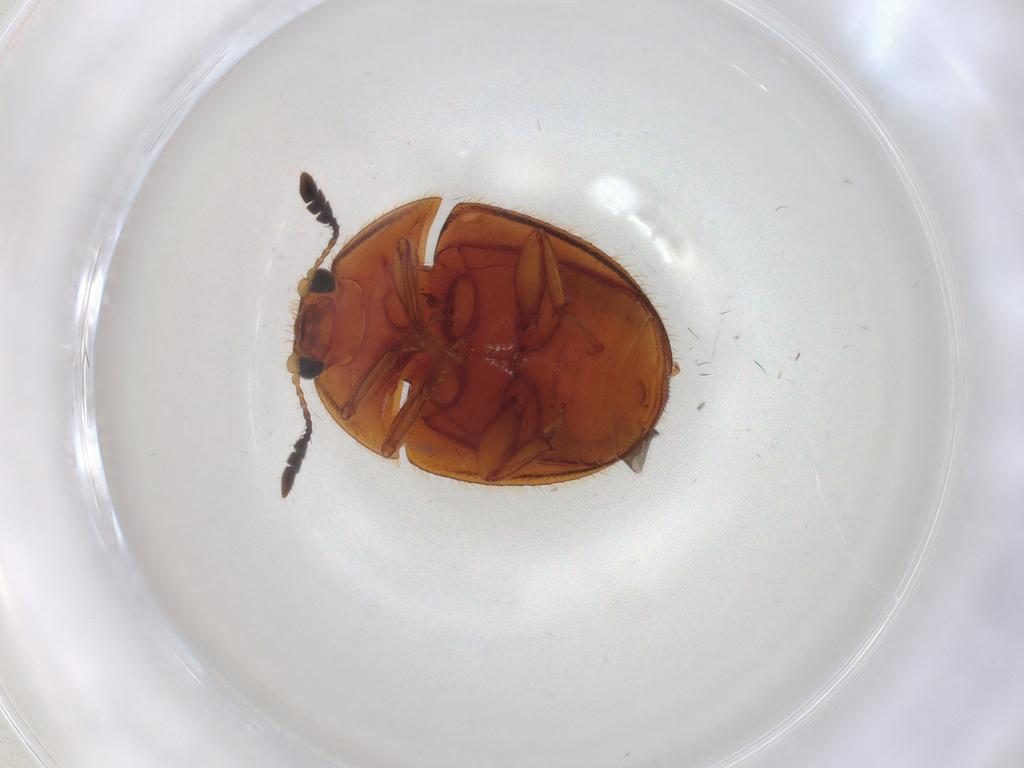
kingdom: Animalia
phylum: Arthropoda
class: Insecta
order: Coleoptera
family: Nitidulidae
